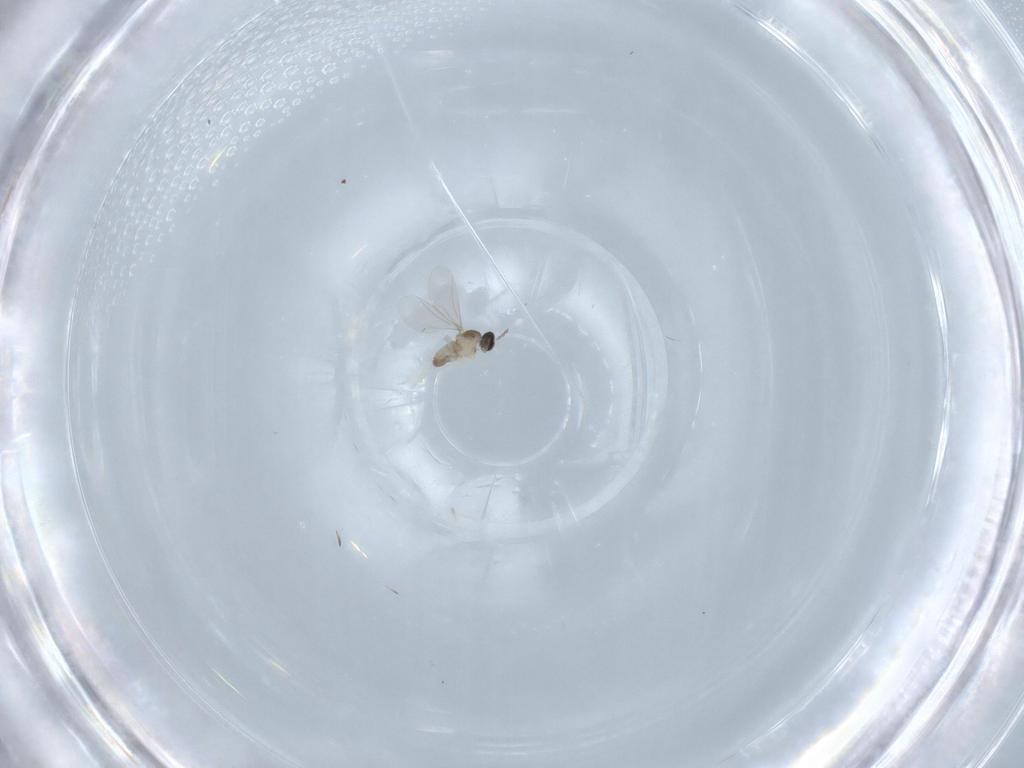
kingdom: Animalia
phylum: Arthropoda
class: Insecta
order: Diptera
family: Cecidomyiidae
